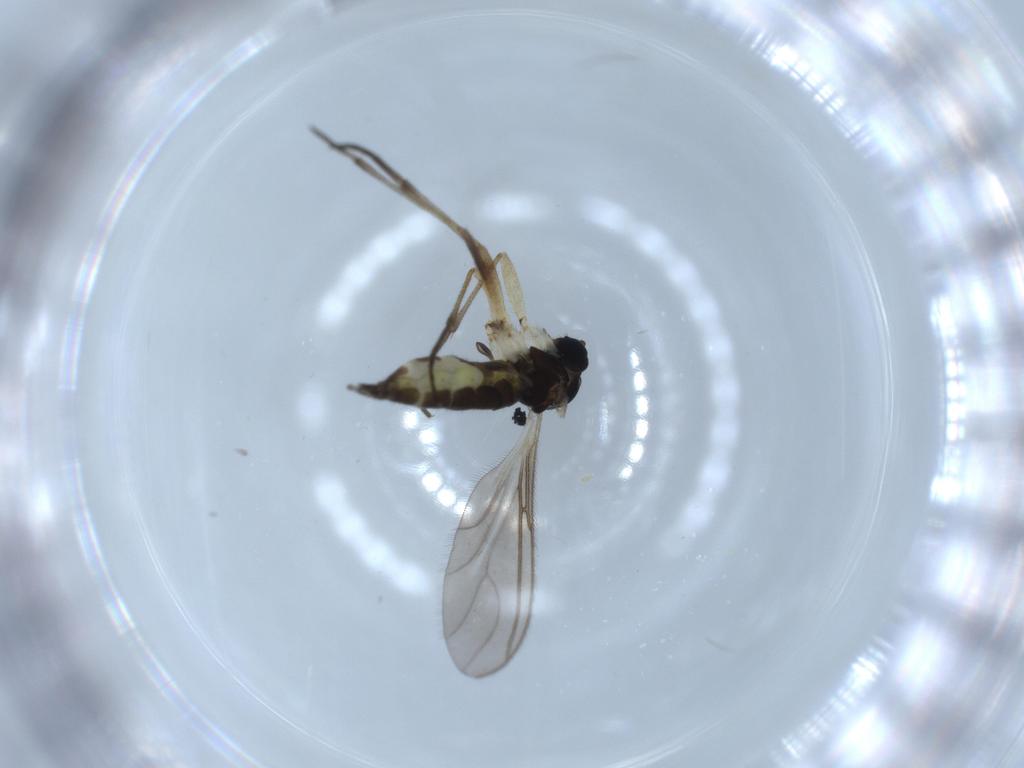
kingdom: Animalia
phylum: Arthropoda
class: Insecta
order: Diptera
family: Sciaridae
